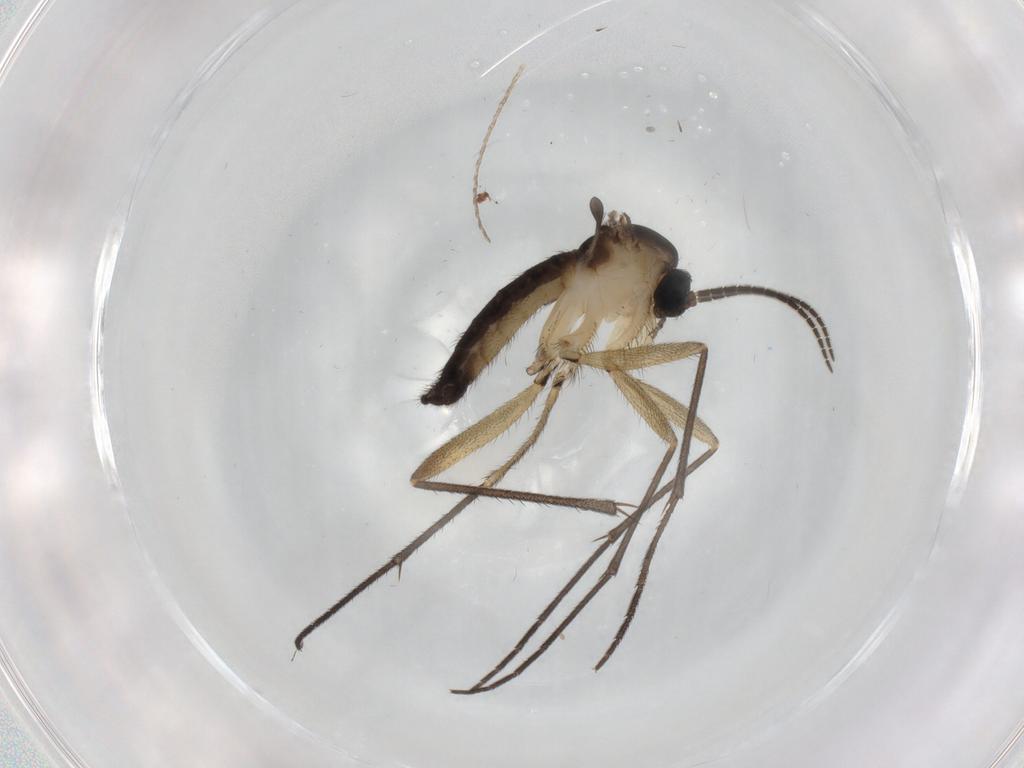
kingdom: Animalia
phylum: Arthropoda
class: Insecta
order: Diptera
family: Sciaridae
